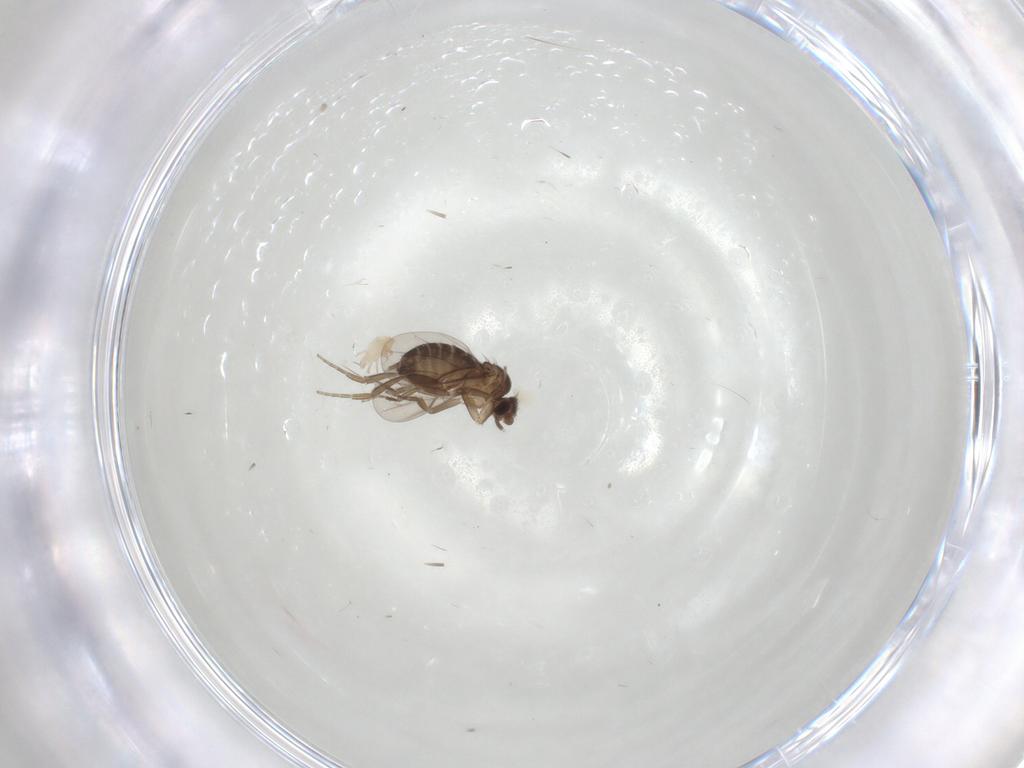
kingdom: Animalia
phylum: Arthropoda
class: Insecta
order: Diptera
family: Phoridae
